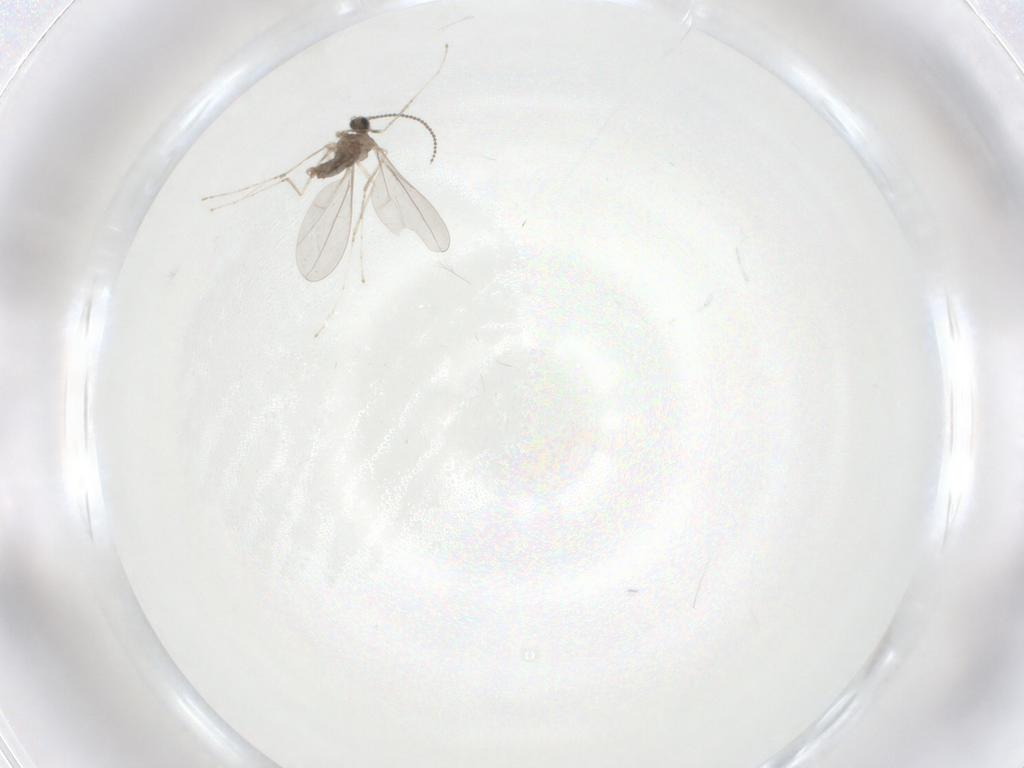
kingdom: Animalia
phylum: Arthropoda
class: Insecta
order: Diptera
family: Cecidomyiidae
